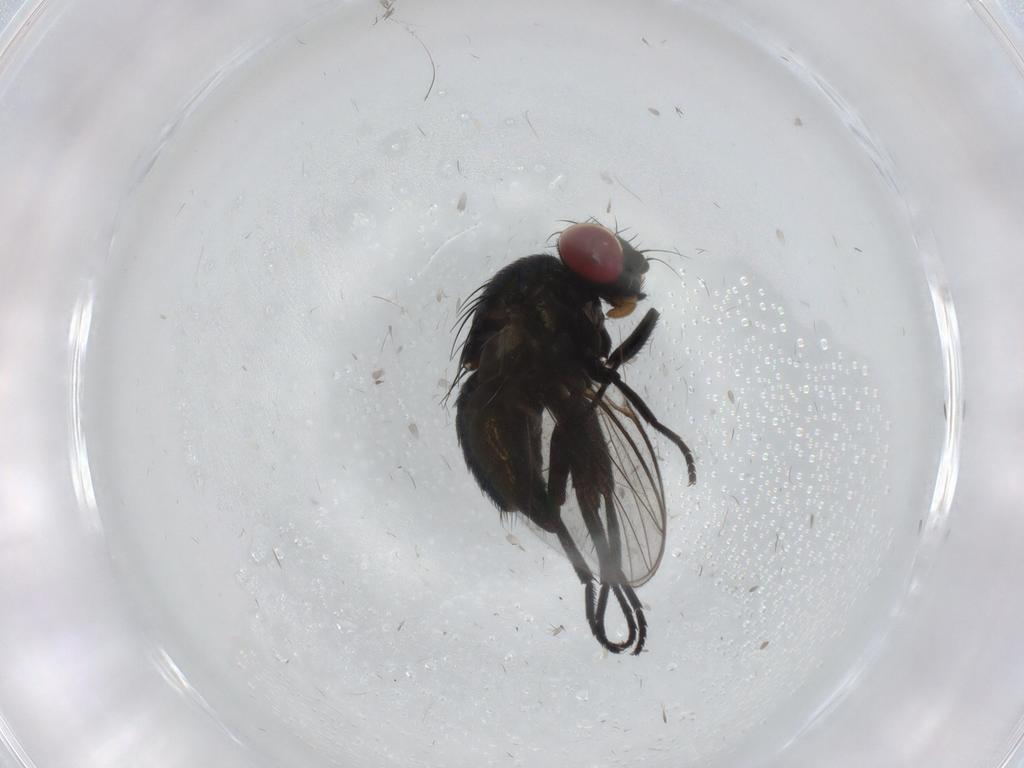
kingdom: Animalia
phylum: Arthropoda
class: Insecta
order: Diptera
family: Agromyzidae
